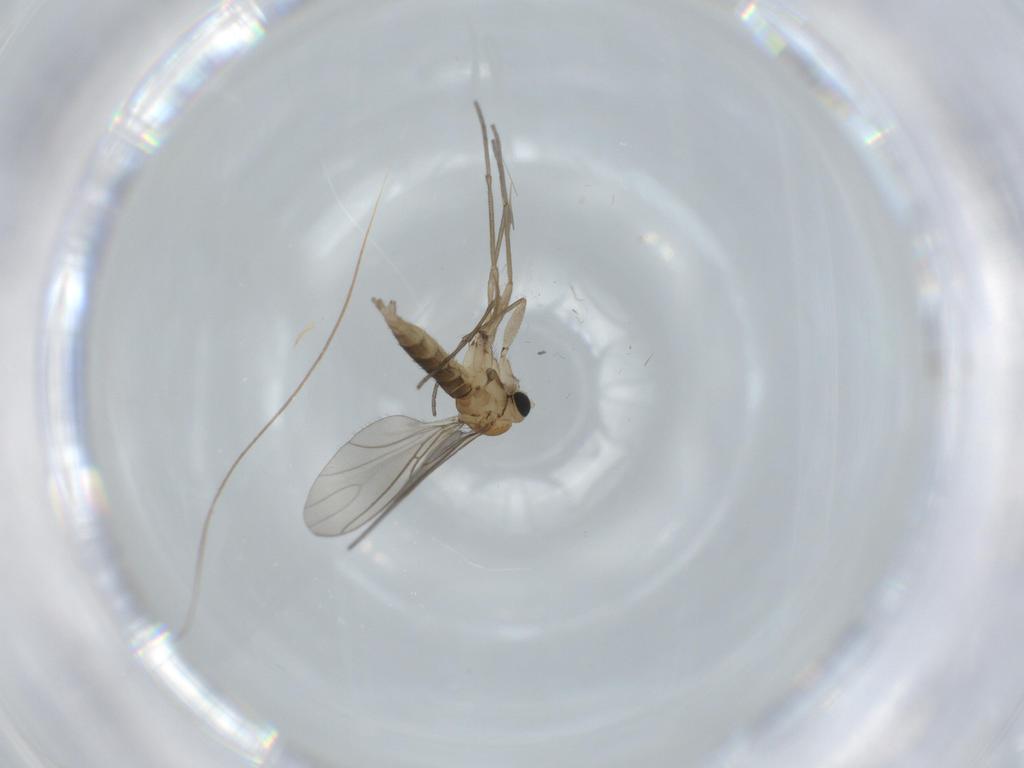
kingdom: Animalia
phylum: Arthropoda
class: Insecta
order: Diptera
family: Sciaridae
